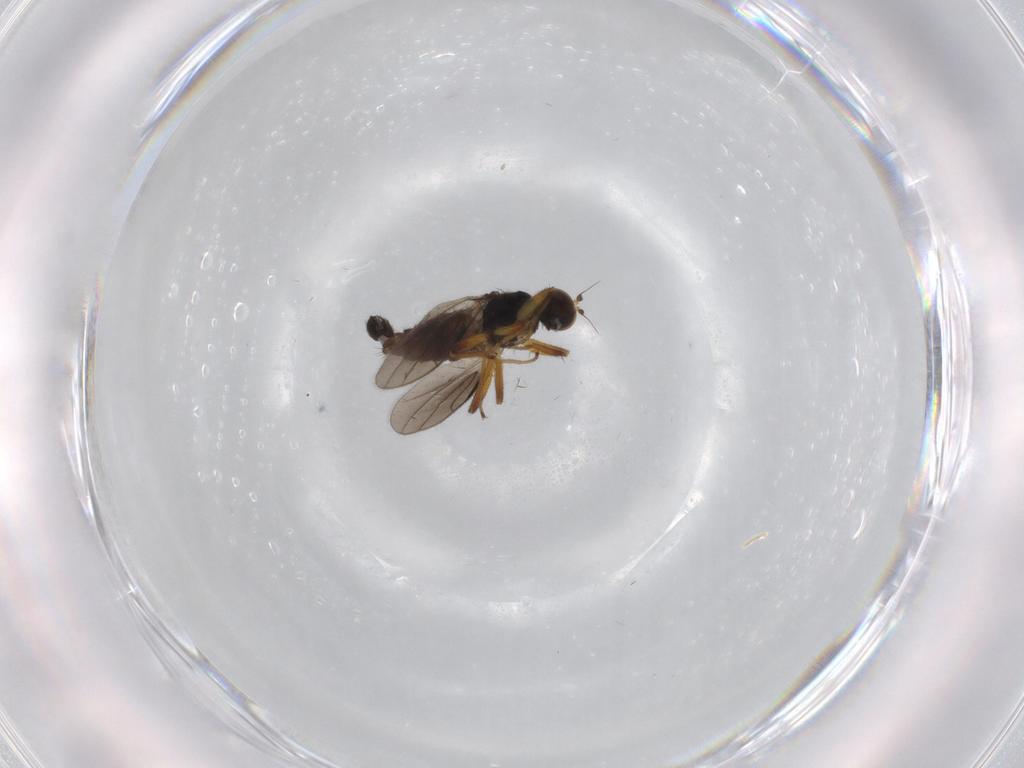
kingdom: Animalia
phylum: Arthropoda
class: Insecta
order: Diptera
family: Hybotidae
